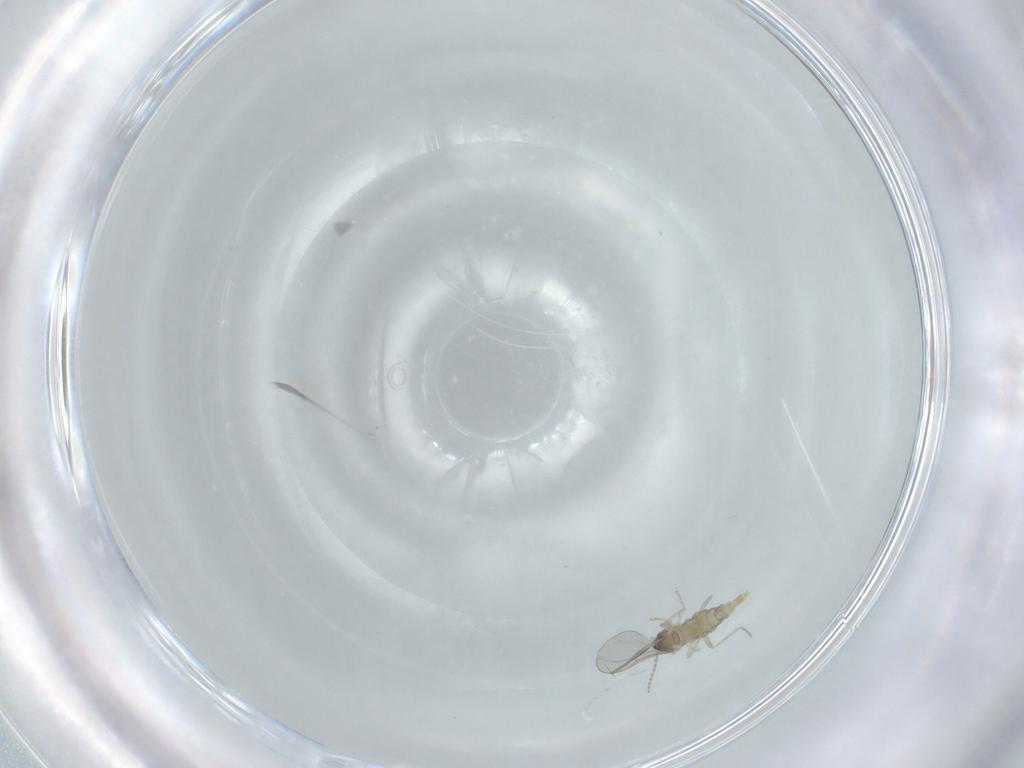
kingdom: Animalia
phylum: Arthropoda
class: Insecta
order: Diptera
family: Cecidomyiidae
